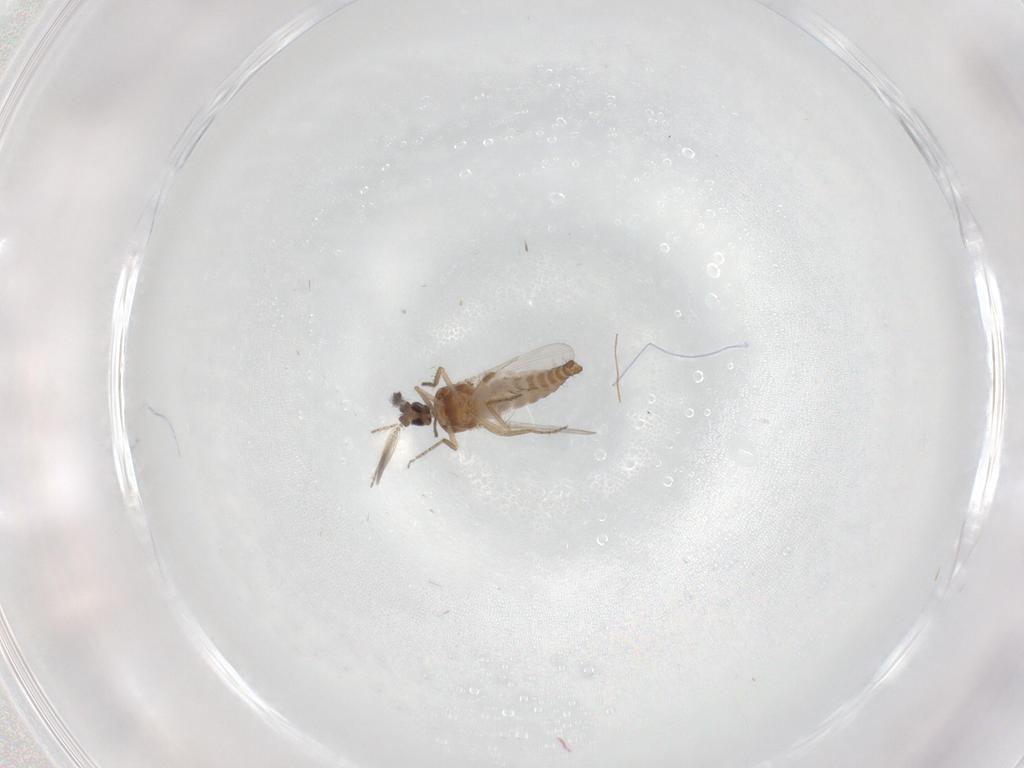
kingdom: Animalia
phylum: Arthropoda
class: Insecta
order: Diptera
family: Ceratopogonidae
